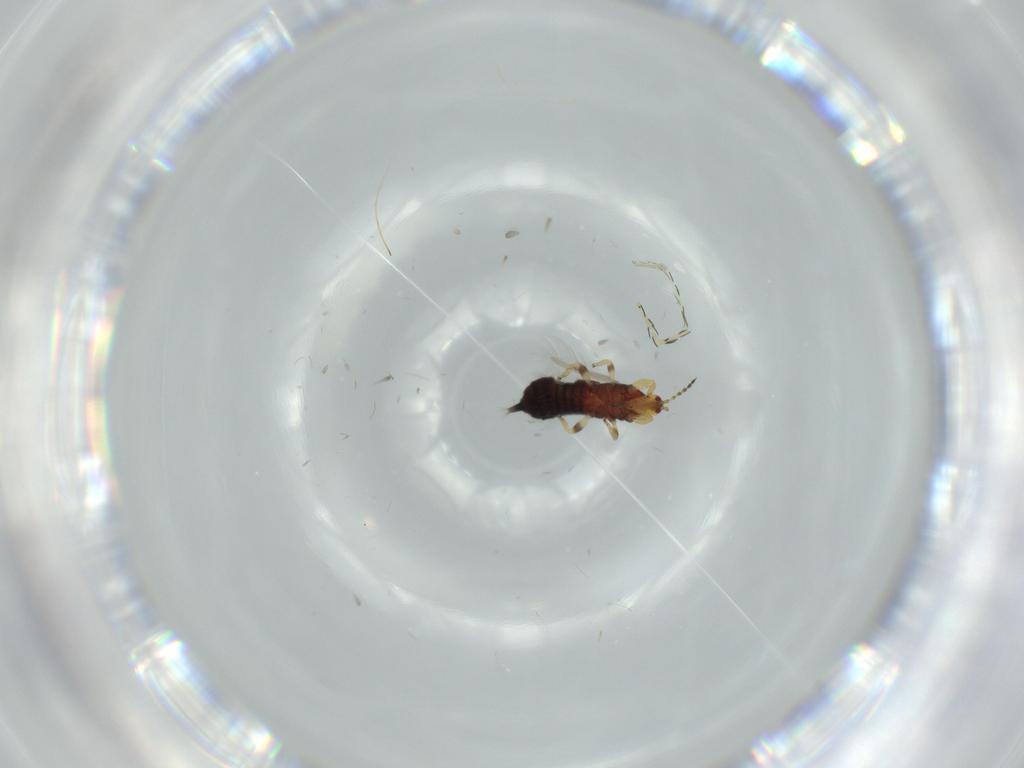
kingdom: Animalia
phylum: Arthropoda
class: Insecta
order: Thysanoptera
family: Phlaeothripidae
